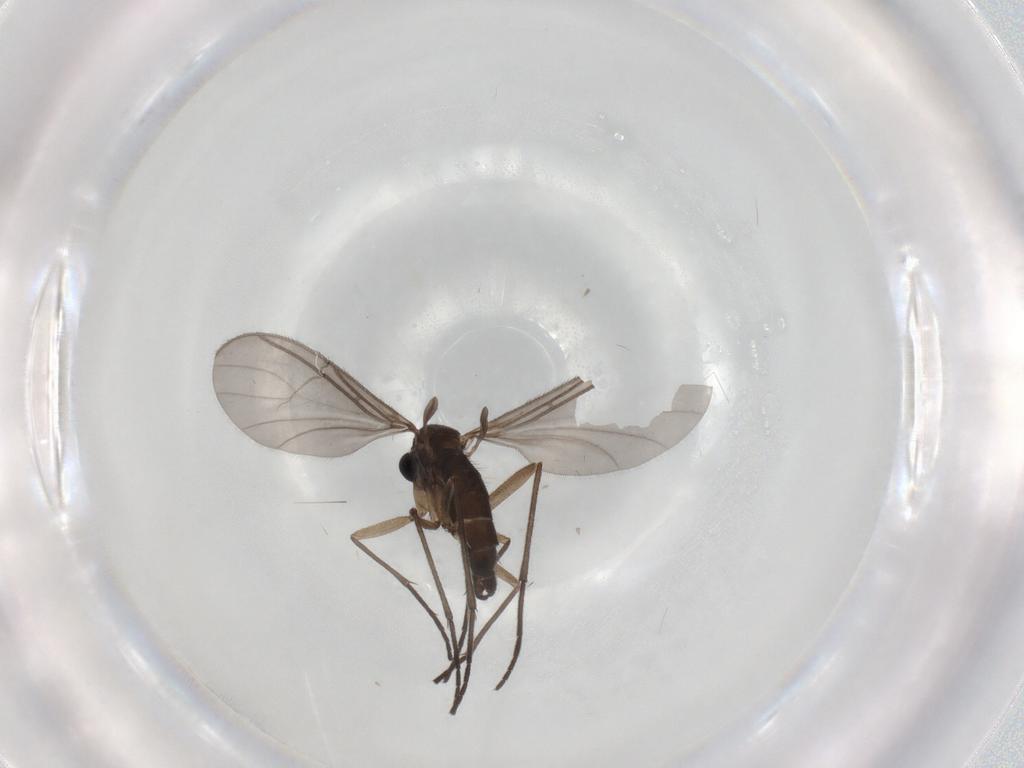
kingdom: Animalia
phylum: Arthropoda
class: Insecta
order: Diptera
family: Sciaridae
